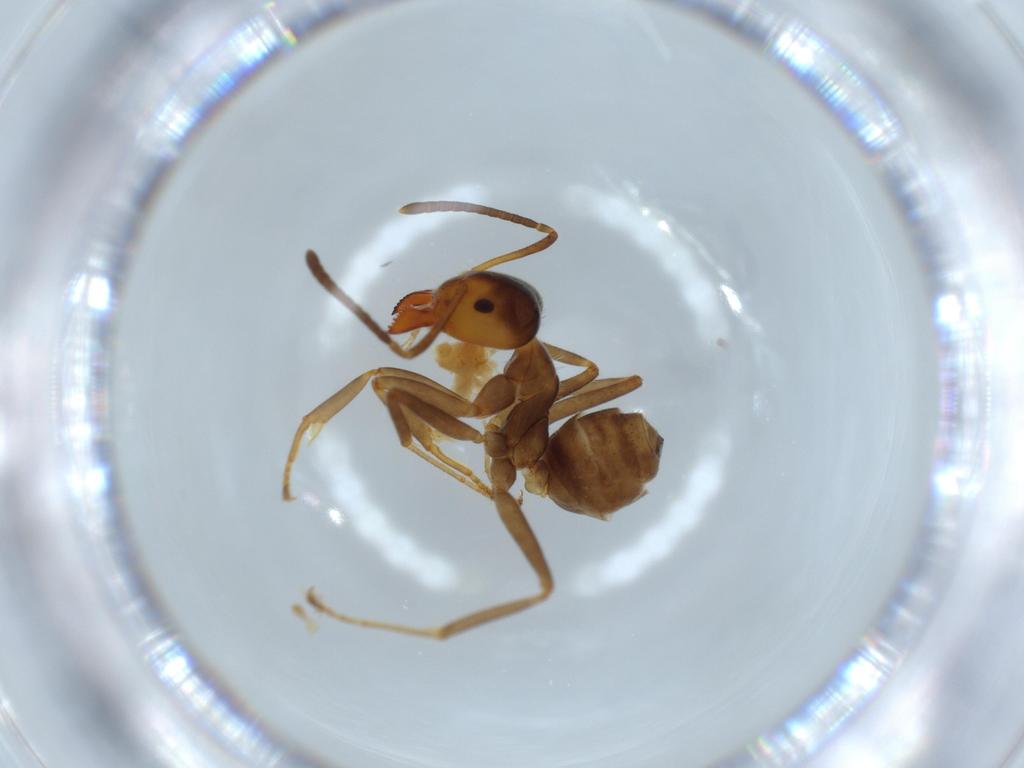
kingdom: Animalia
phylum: Arthropoda
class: Insecta
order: Hymenoptera
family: Formicidae
